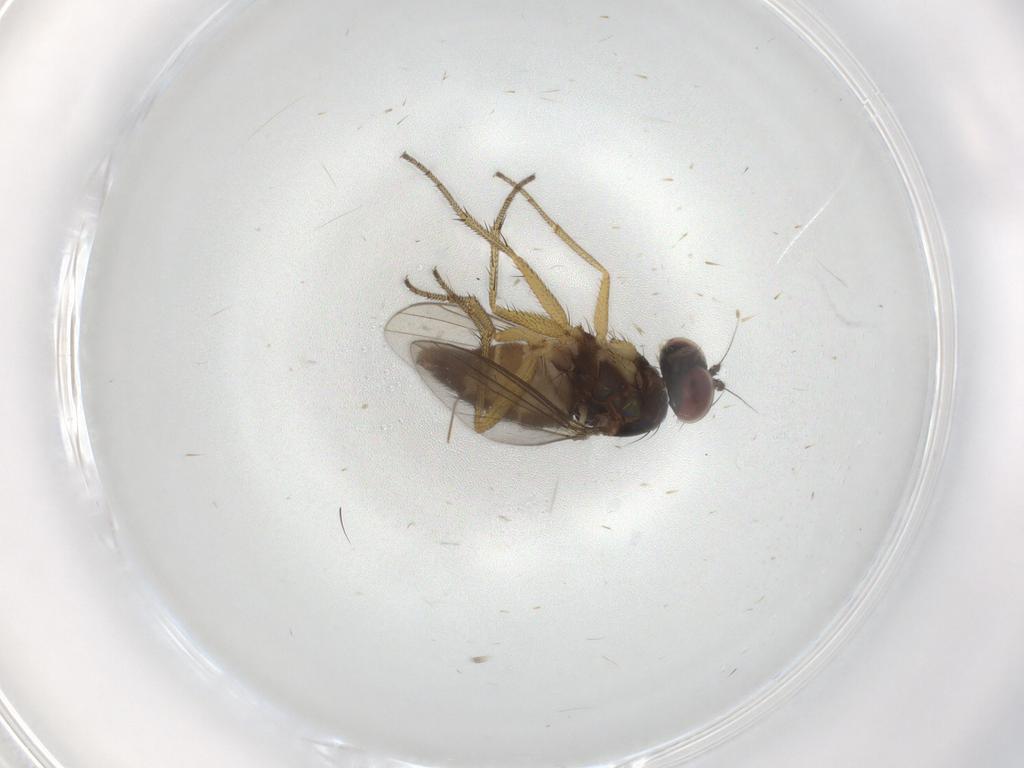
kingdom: Animalia
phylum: Arthropoda
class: Insecta
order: Diptera
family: Dolichopodidae
